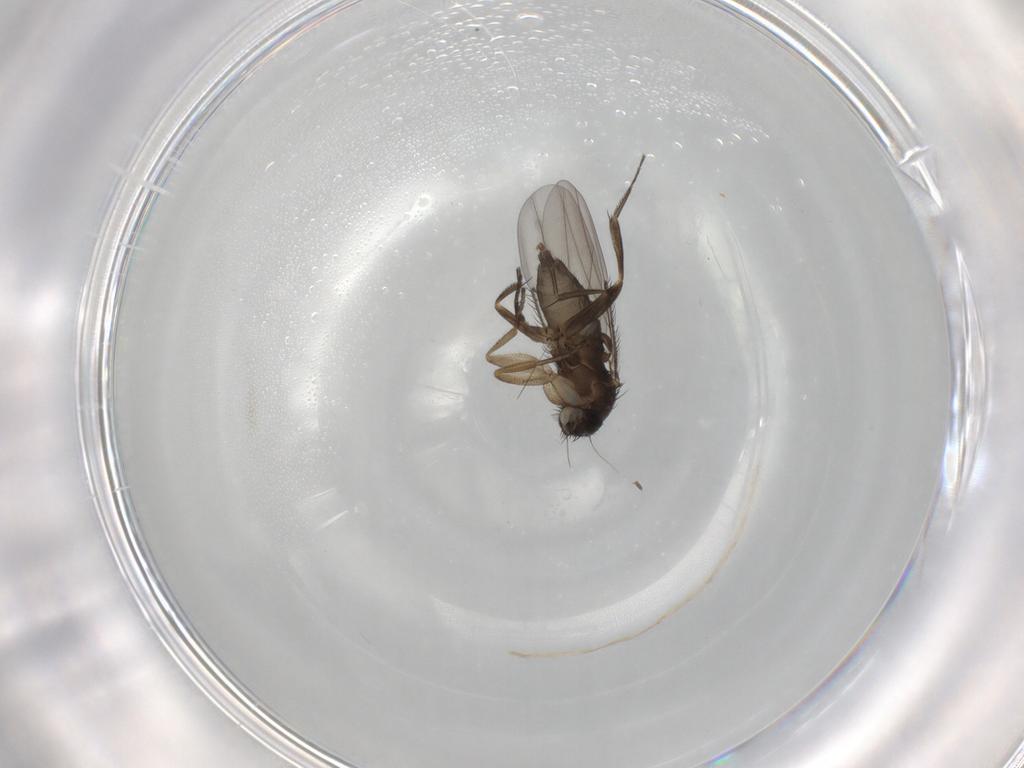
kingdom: Animalia
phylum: Arthropoda
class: Insecta
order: Diptera
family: Phoridae
